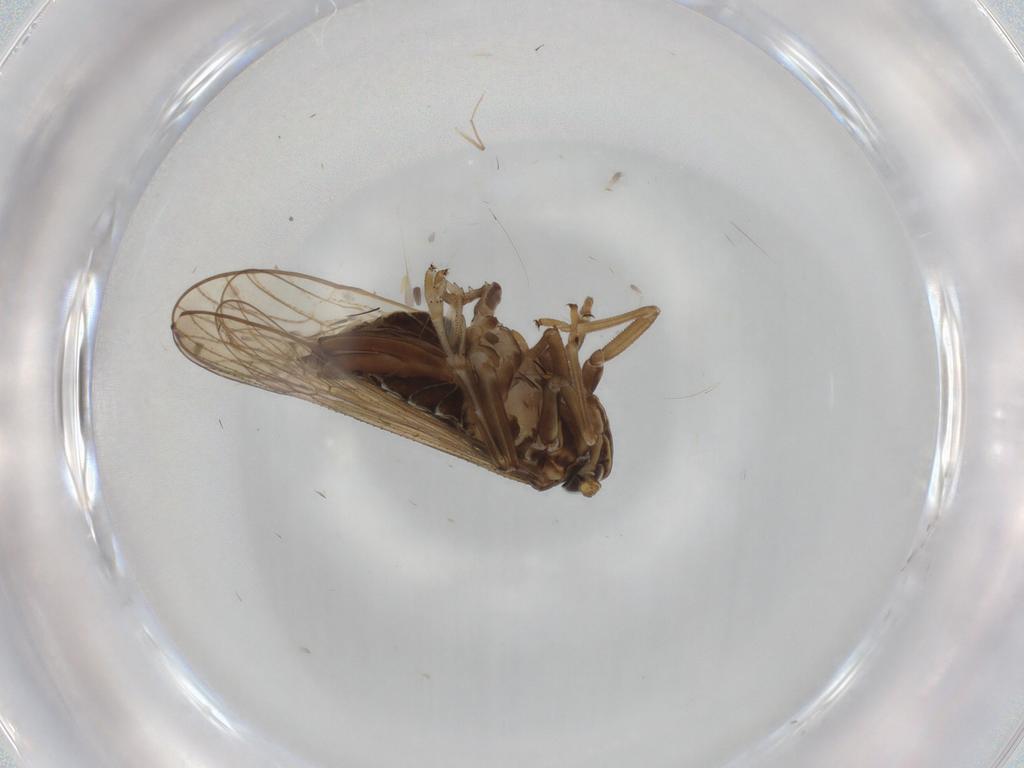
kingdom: Animalia
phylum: Arthropoda
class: Insecta
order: Hemiptera
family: Delphacidae
